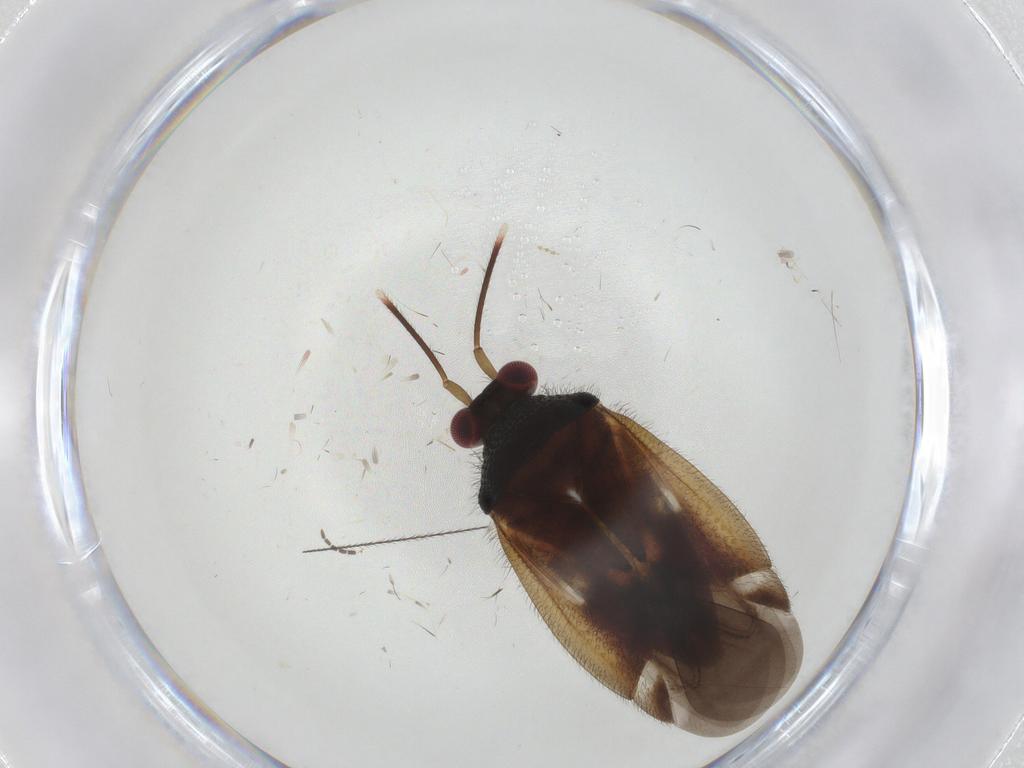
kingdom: Animalia
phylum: Arthropoda
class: Insecta
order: Hemiptera
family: Miridae
